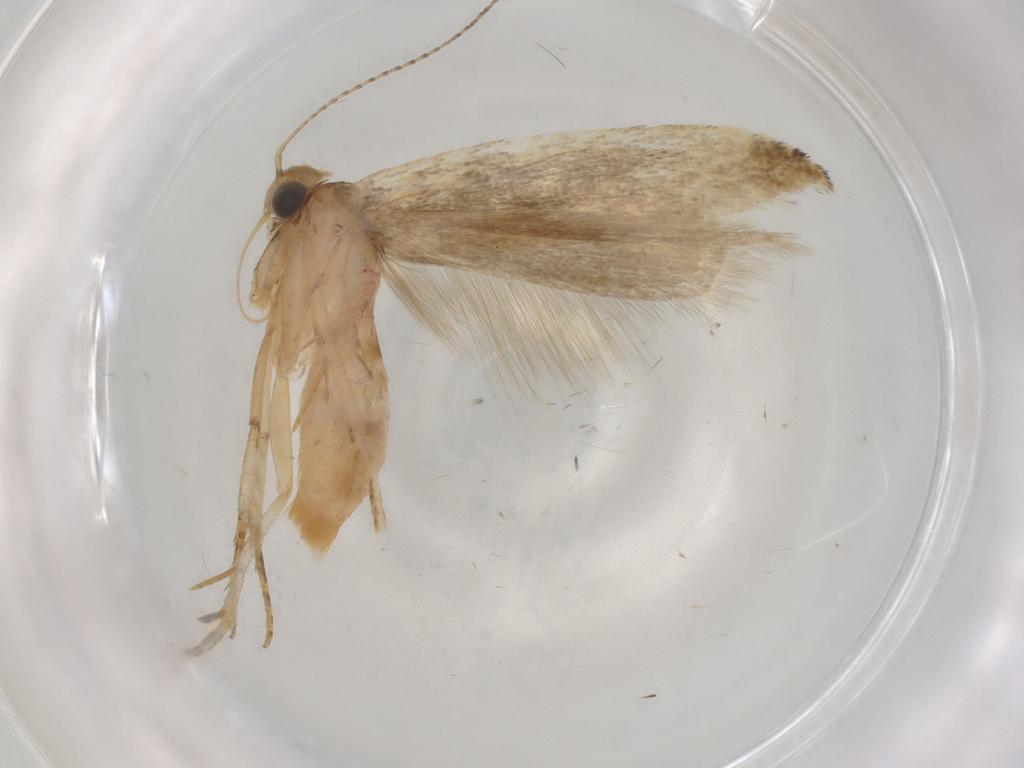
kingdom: Animalia
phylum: Arthropoda
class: Insecta
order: Lepidoptera
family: Gelechiidae
